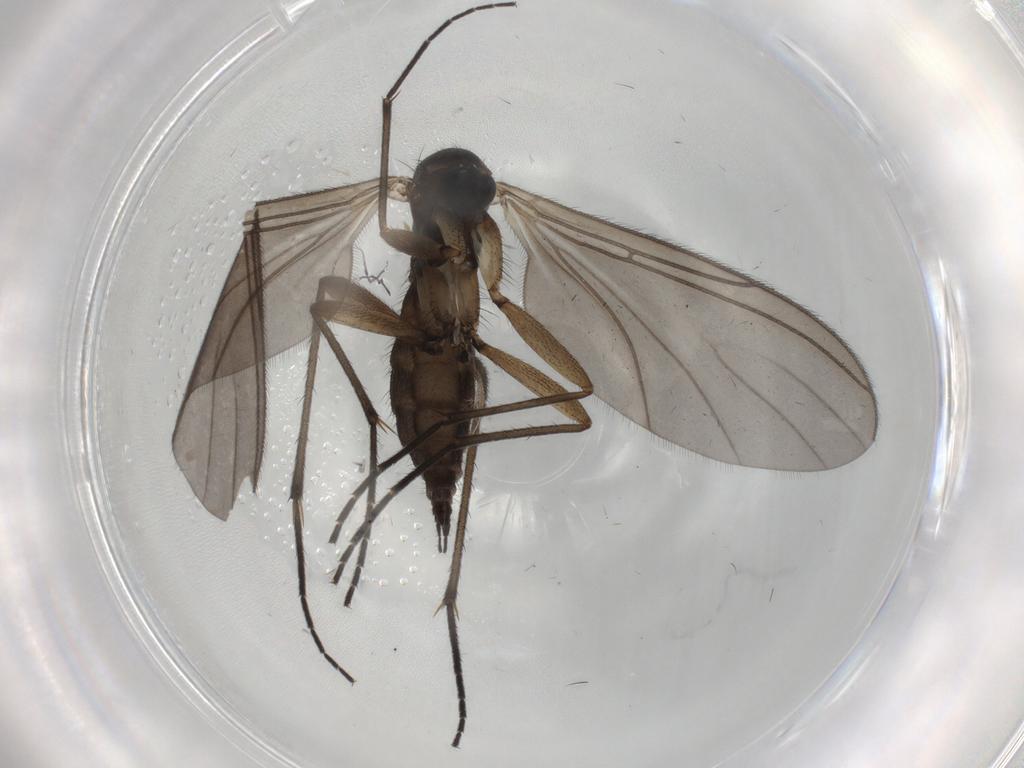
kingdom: Animalia
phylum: Arthropoda
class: Insecta
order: Diptera
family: Sciaridae
